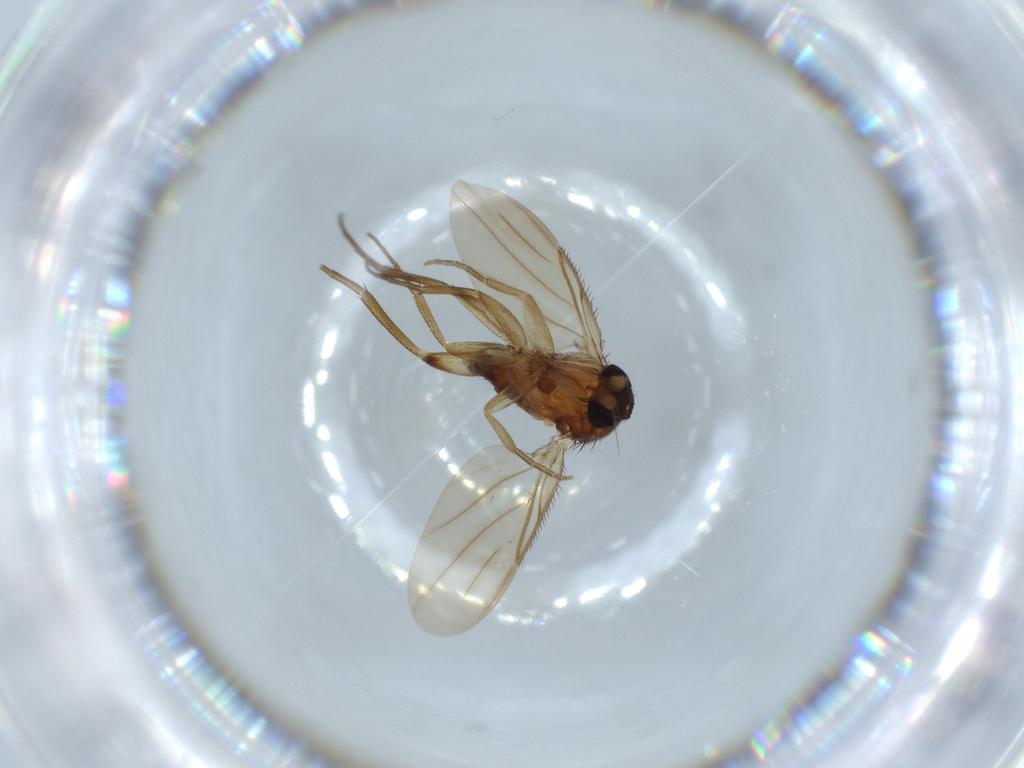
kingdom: Animalia
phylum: Arthropoda
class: Insecta
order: Diptera
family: Phoridae
